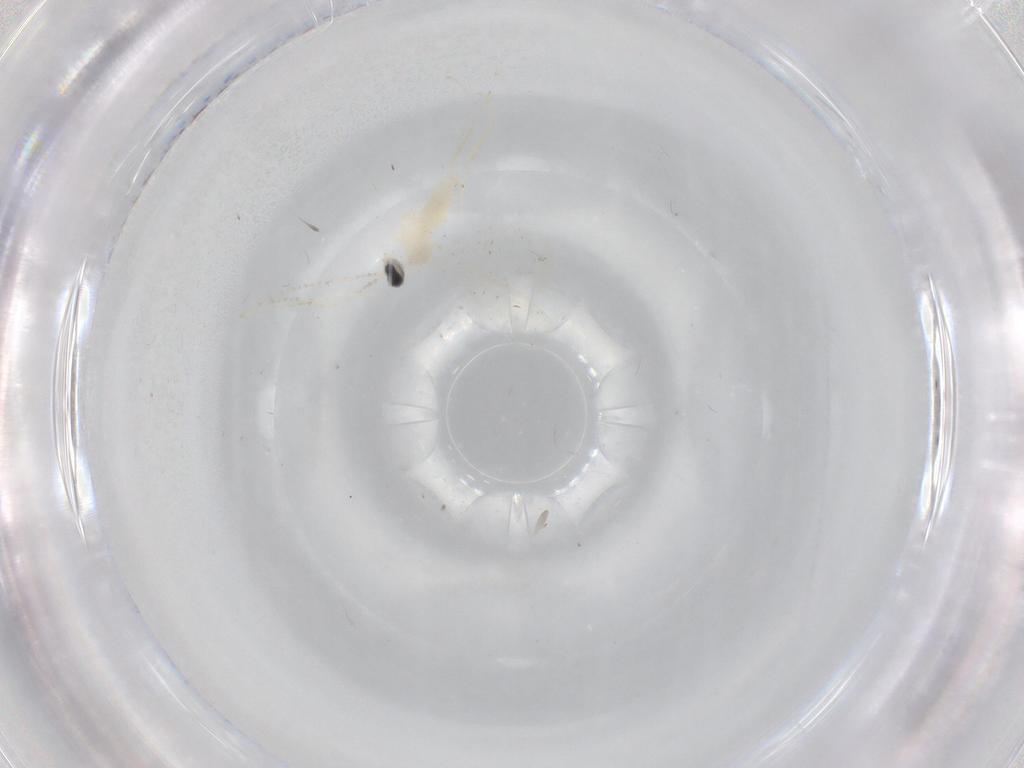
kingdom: Animalia
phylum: Arthropoda
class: Insecta
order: Diptera
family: Cecidomyiidae
